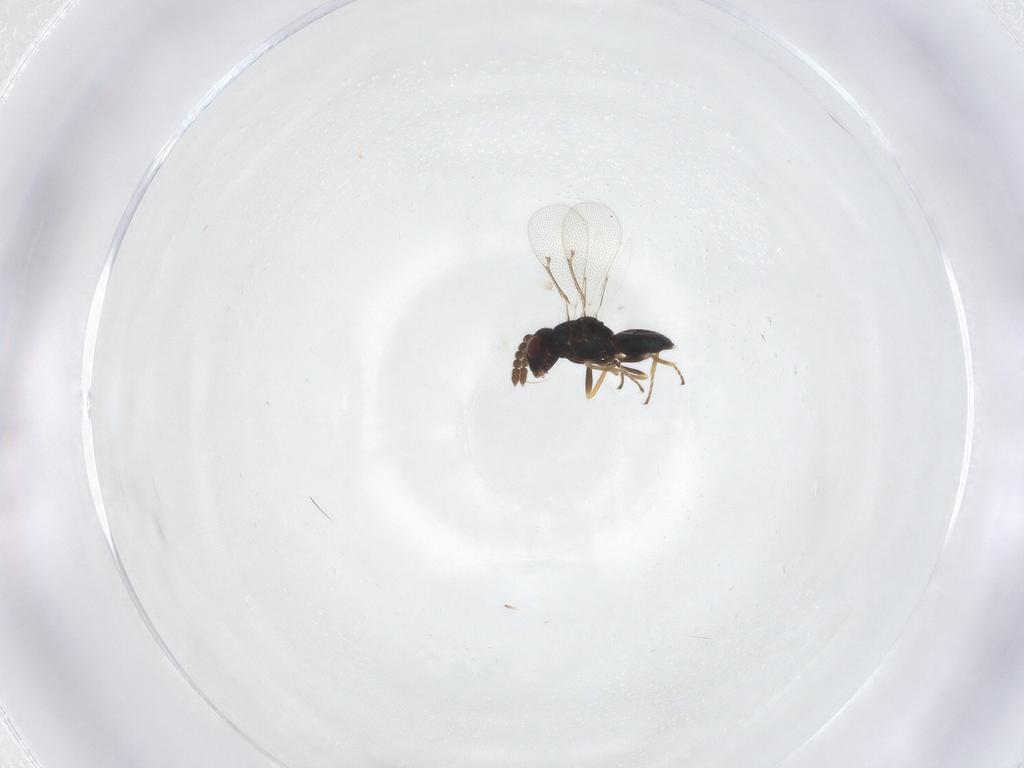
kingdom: Animalia
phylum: Arthropoda
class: Insecta
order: Hymenoptera
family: Eulophidae
